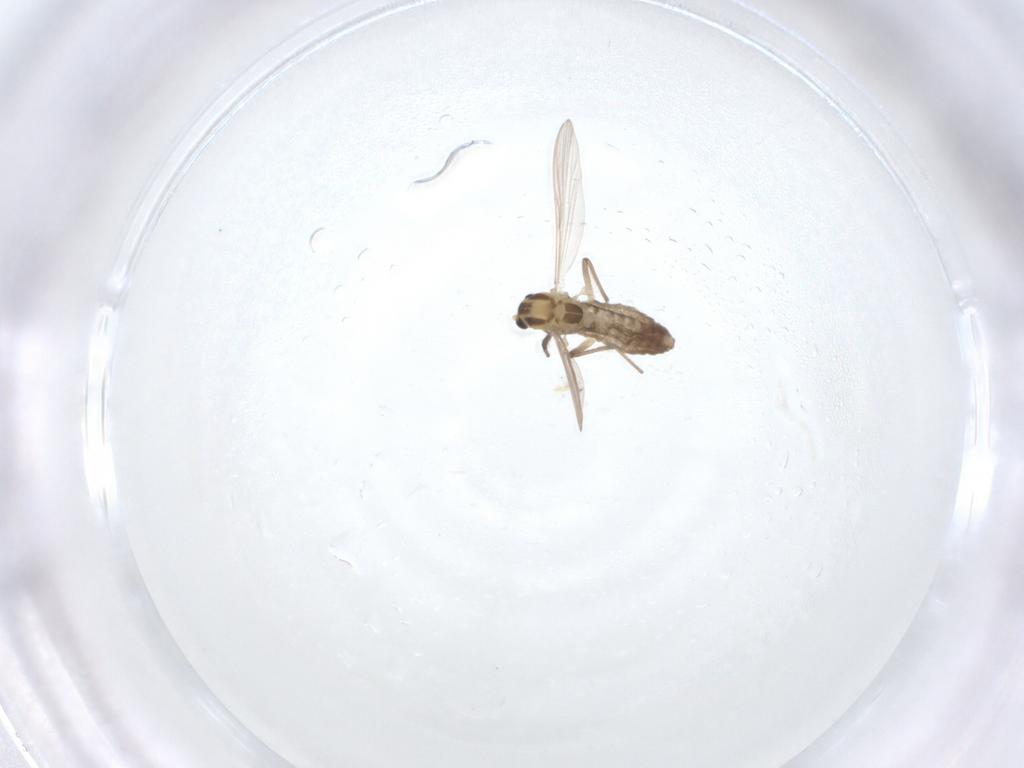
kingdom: Animalia
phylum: Arthropoda
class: Insecta
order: Diptera
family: Chironomidae
